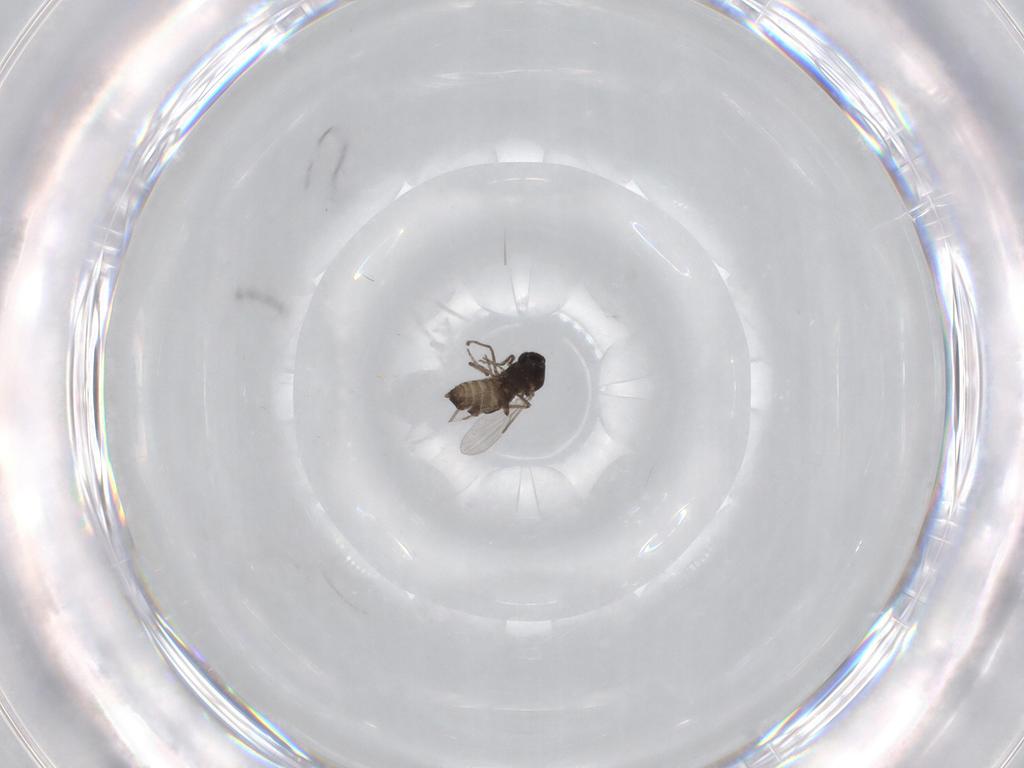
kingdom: Animalia
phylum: Arthropoda
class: Insecta
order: Diptera
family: Ceratopogonidae
